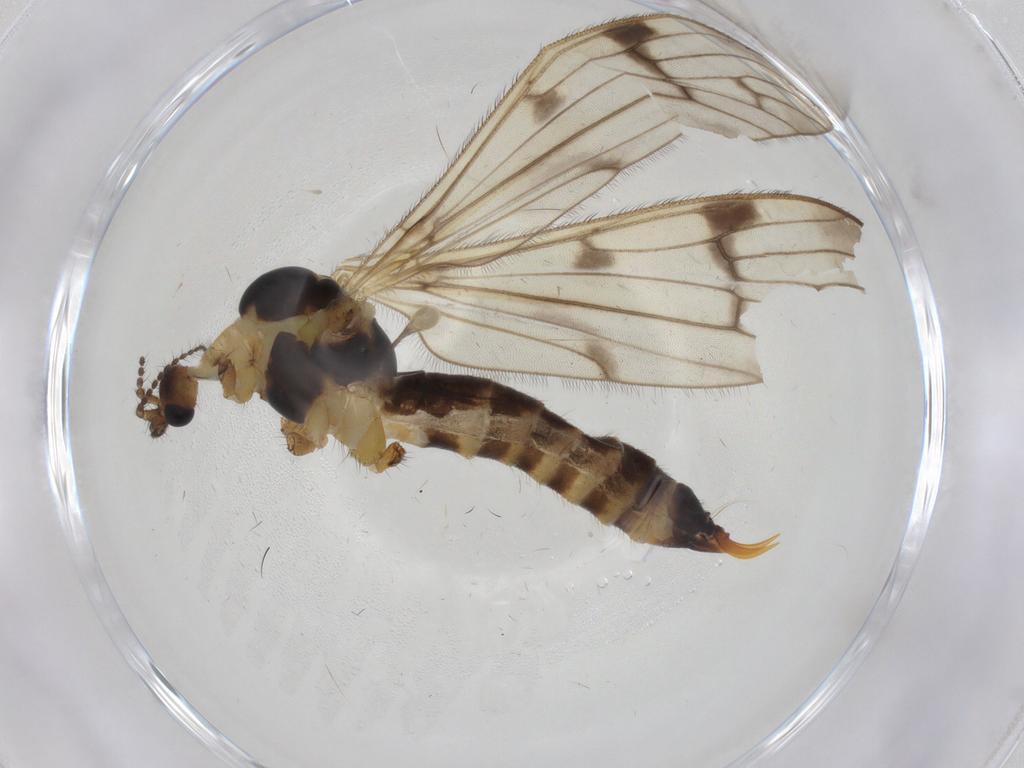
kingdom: Animalia
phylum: Arthropoda
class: Insecta
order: Diptera
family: Limoniidae
